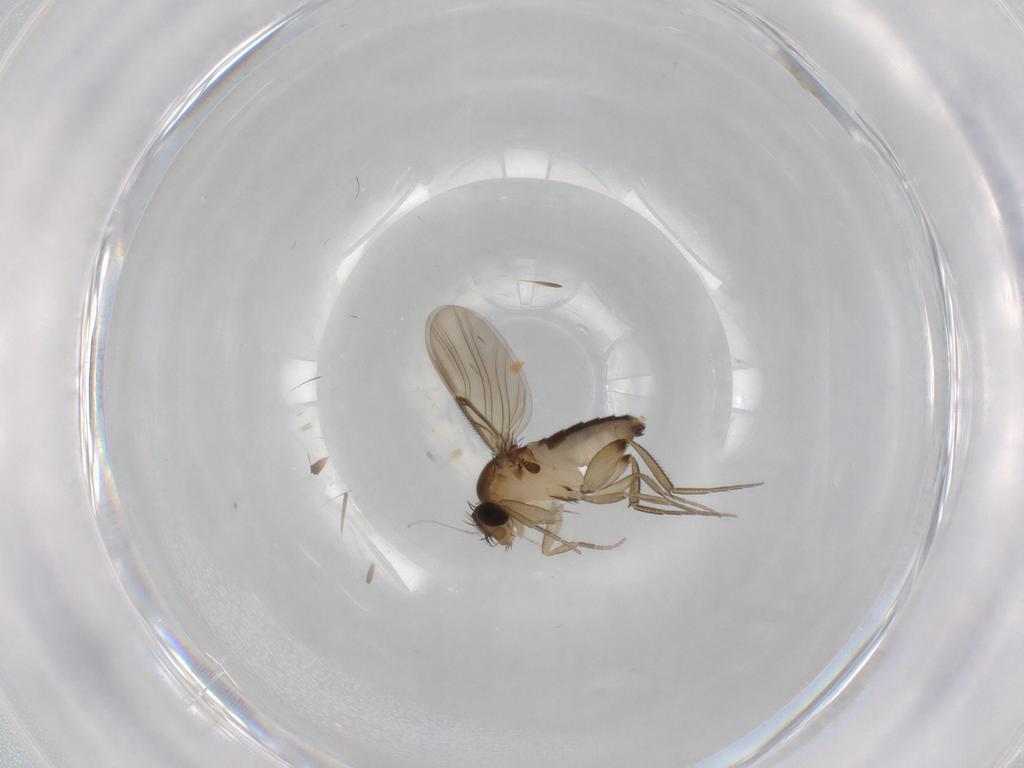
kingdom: Animalia
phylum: Arthropoda
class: Insecta
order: Diptera
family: Phoridae
